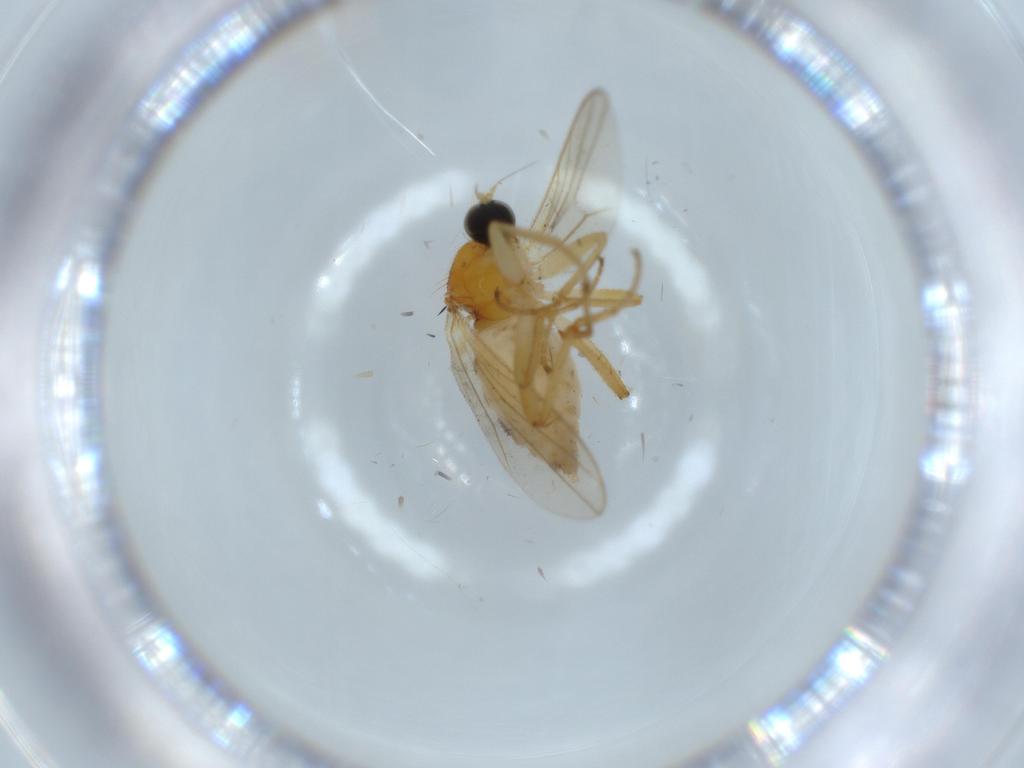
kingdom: Animalia
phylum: Arthropoda
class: Insecta
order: Diptera
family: Hybotidae
